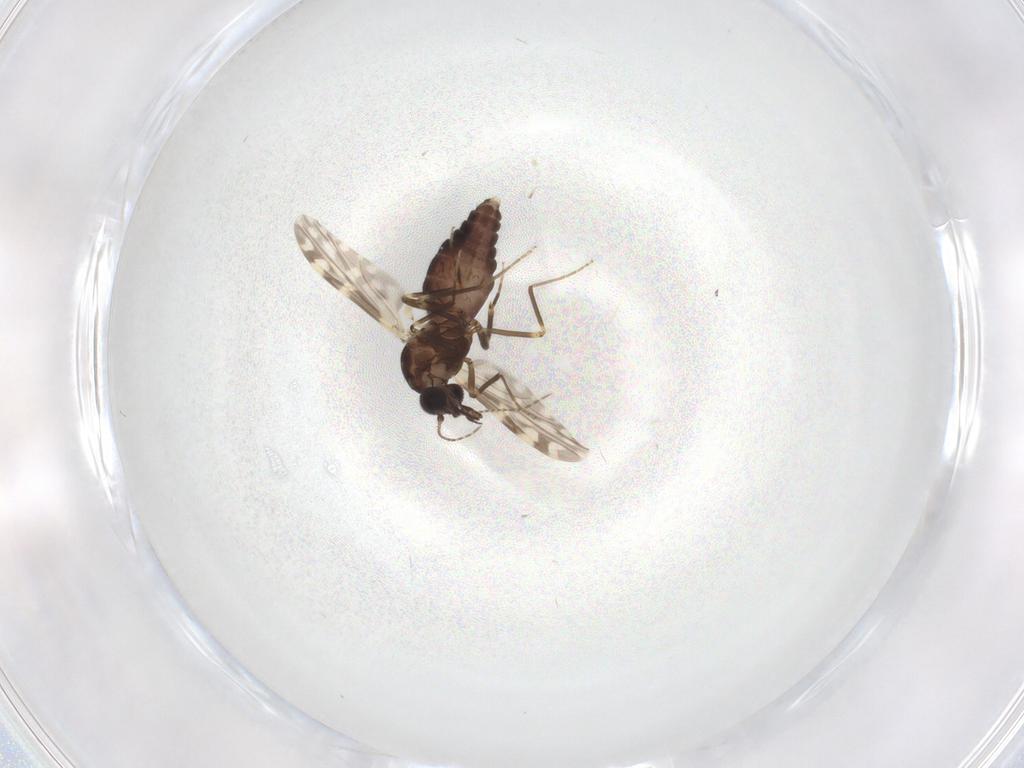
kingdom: Animalia
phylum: Arthropoda
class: Insecta
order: Diptera
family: Ceratopogonidae
